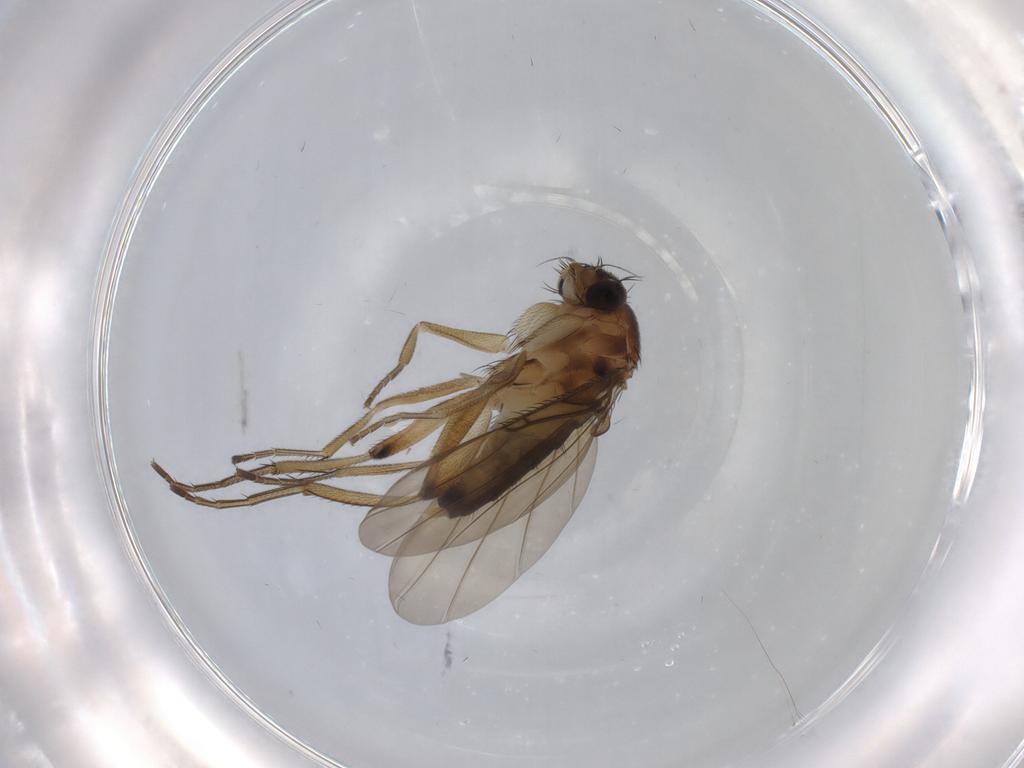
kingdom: Animalia
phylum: Arthropoda
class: Insecta
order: Diptera
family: Phoridae
